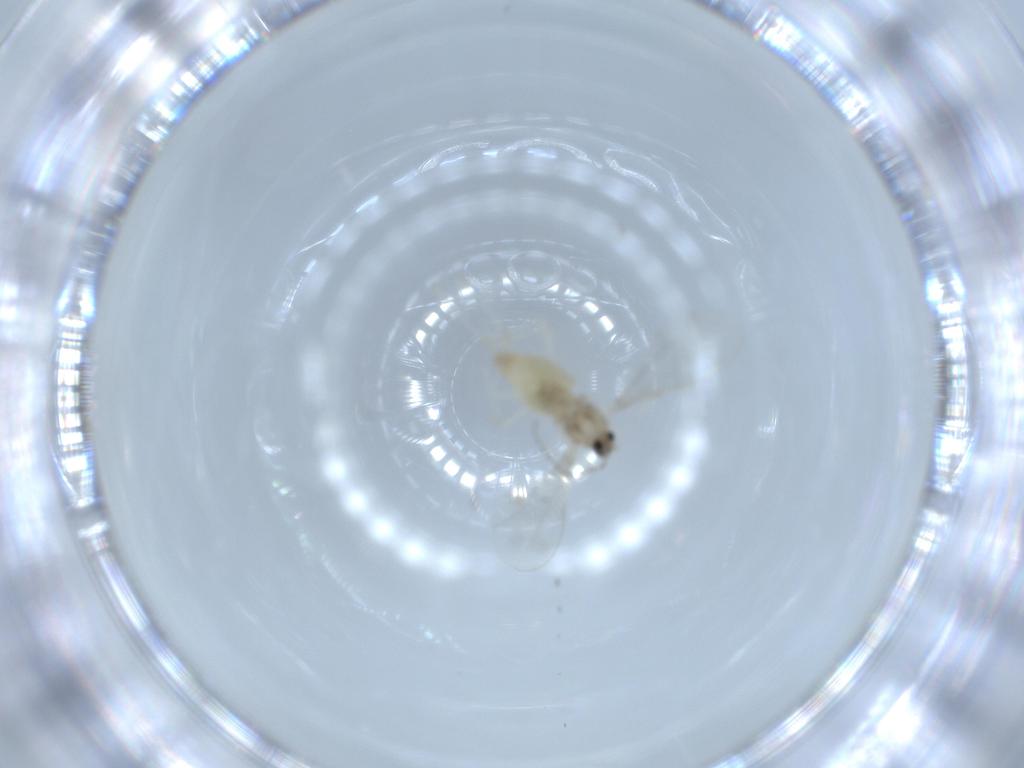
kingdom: Animalia
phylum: Arthropoda
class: Insecta
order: Diptera
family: Cecidomyiidae
